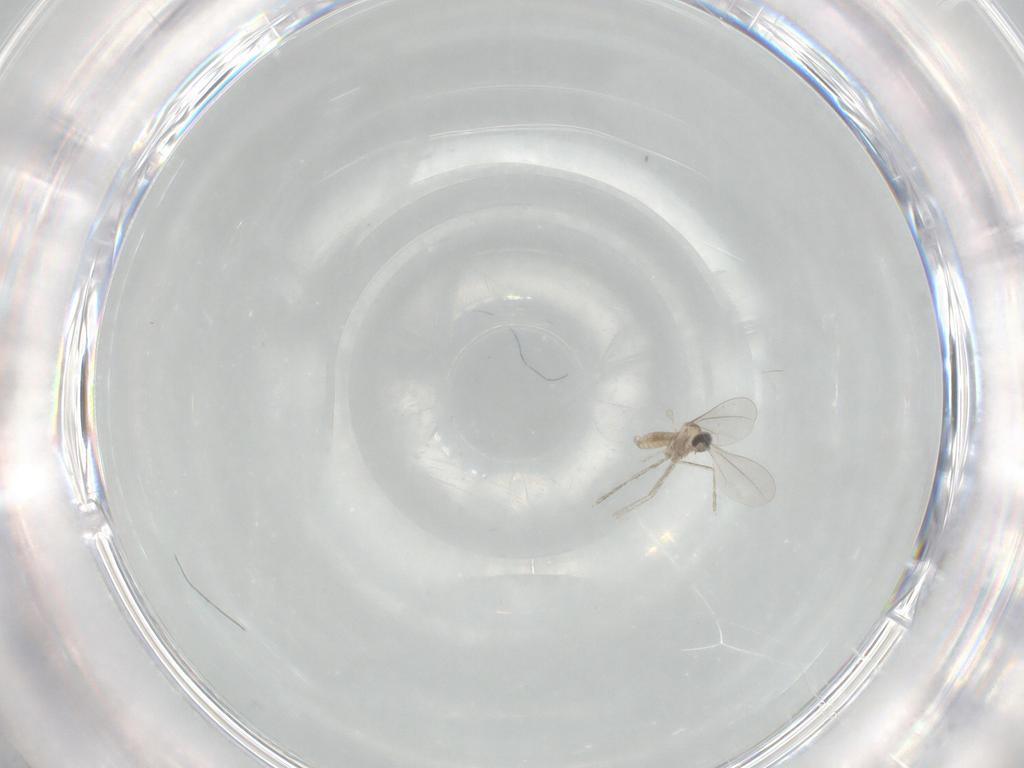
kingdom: Animalia
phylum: Arthropoda
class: Insecta
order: Diptera
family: Cecidomyiidae
